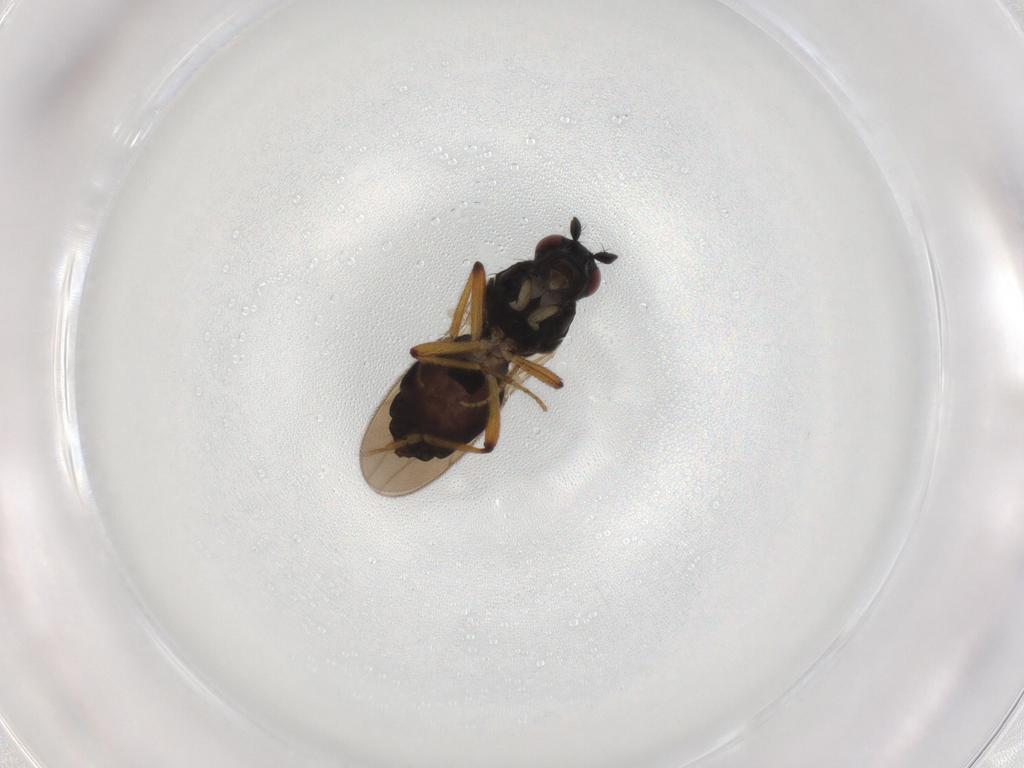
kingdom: Animalia
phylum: Arthropoda
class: Insecta
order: Diptera
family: Sphaeroceridae
